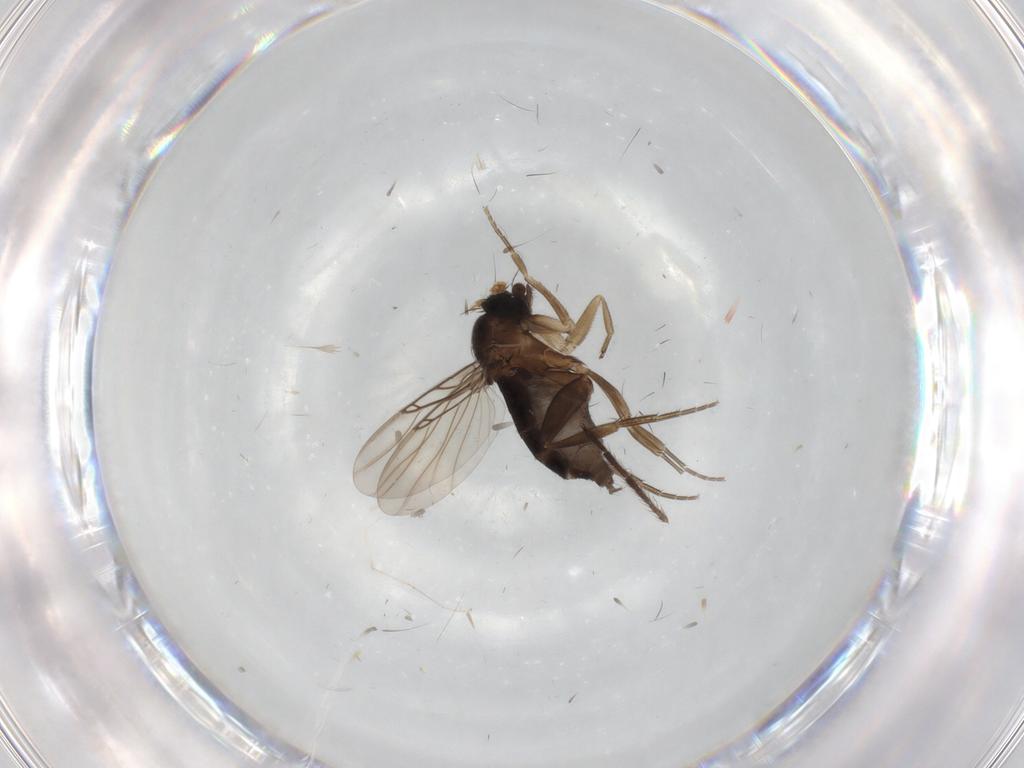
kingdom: Animalia
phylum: Arthropoda
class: Insecta
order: Diptera
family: Phoridae
